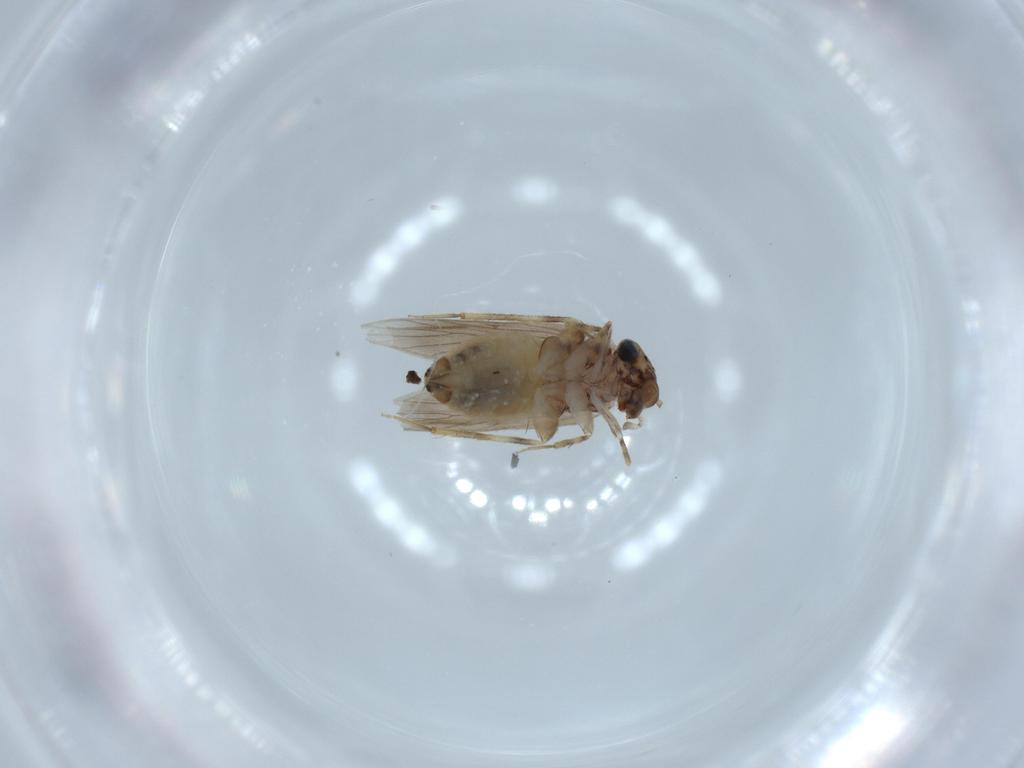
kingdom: Animalia
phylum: Arthropoda
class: Insecta
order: Psocodea
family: Lepidopsocidae
